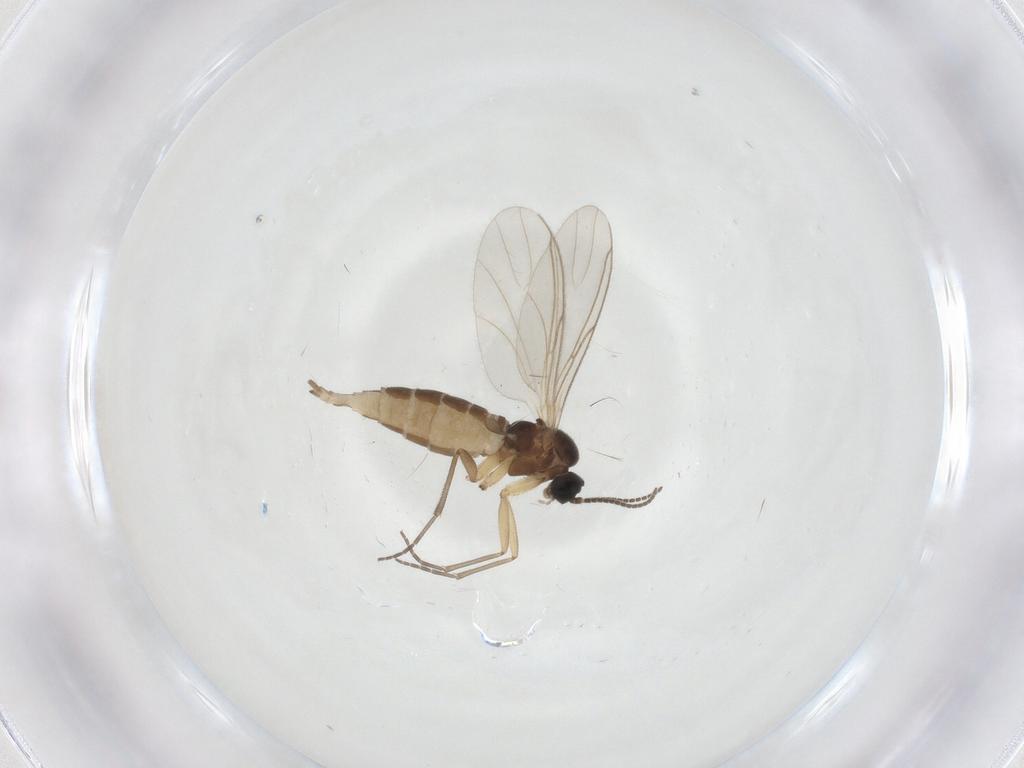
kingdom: Animalia
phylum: Arthropoda
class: Insecta
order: Diptera
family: Sciaridae
